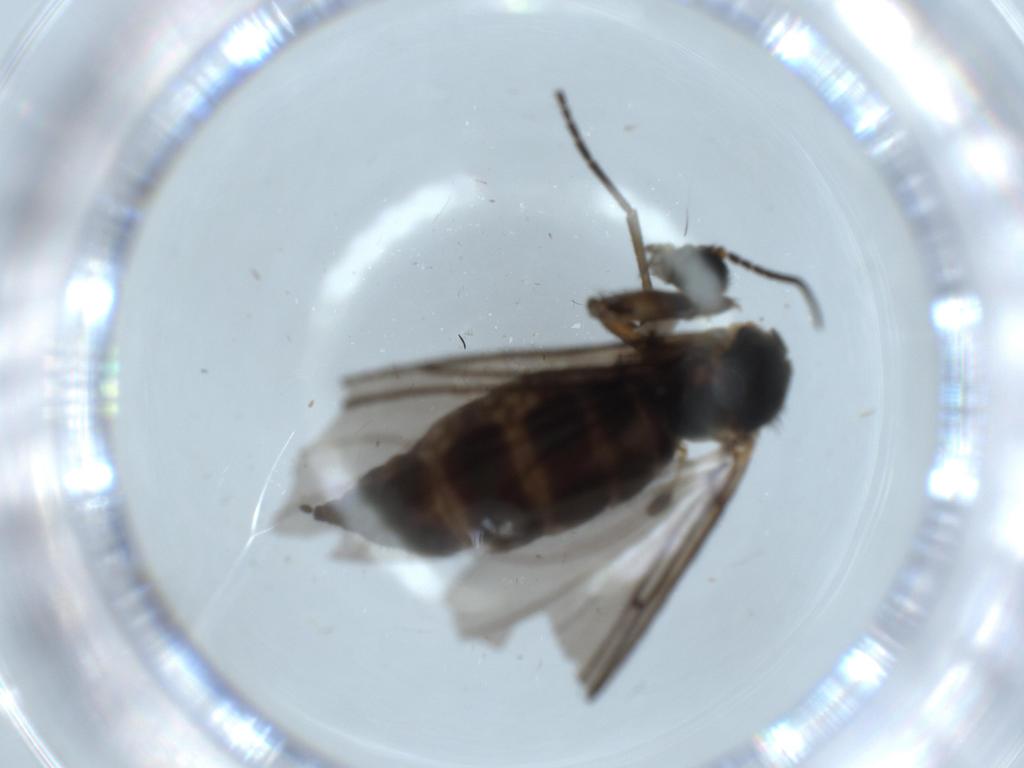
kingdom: Animalia
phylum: Arthropoda
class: Insecta
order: Diptera
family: Sciaridae
